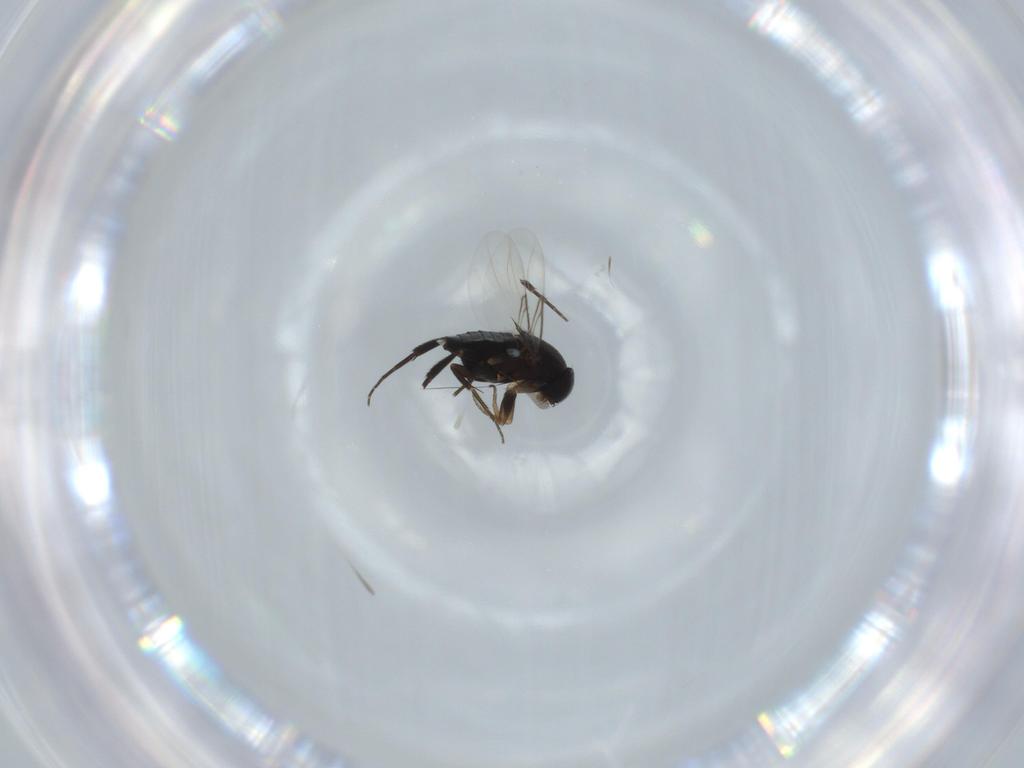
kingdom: Animalia
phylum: Arthropoda
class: Insecta
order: Diptera
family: Phoridae
